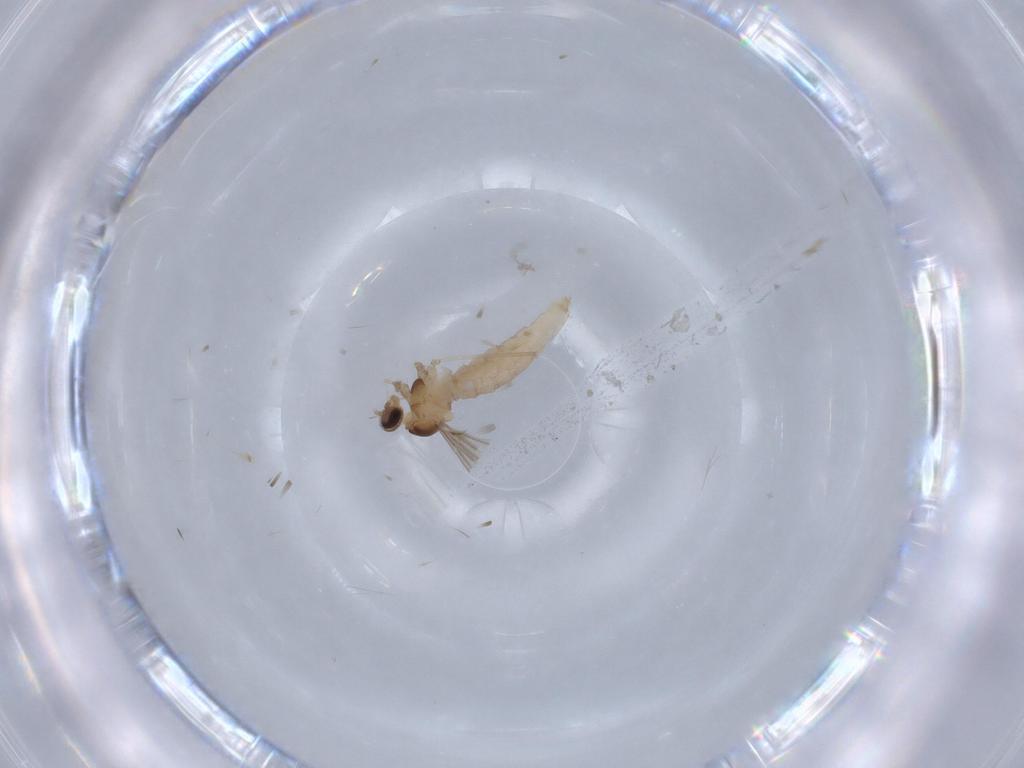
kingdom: Animalia
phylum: Arthropoda
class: Insecta
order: Diptera
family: Cecidomyiidae
